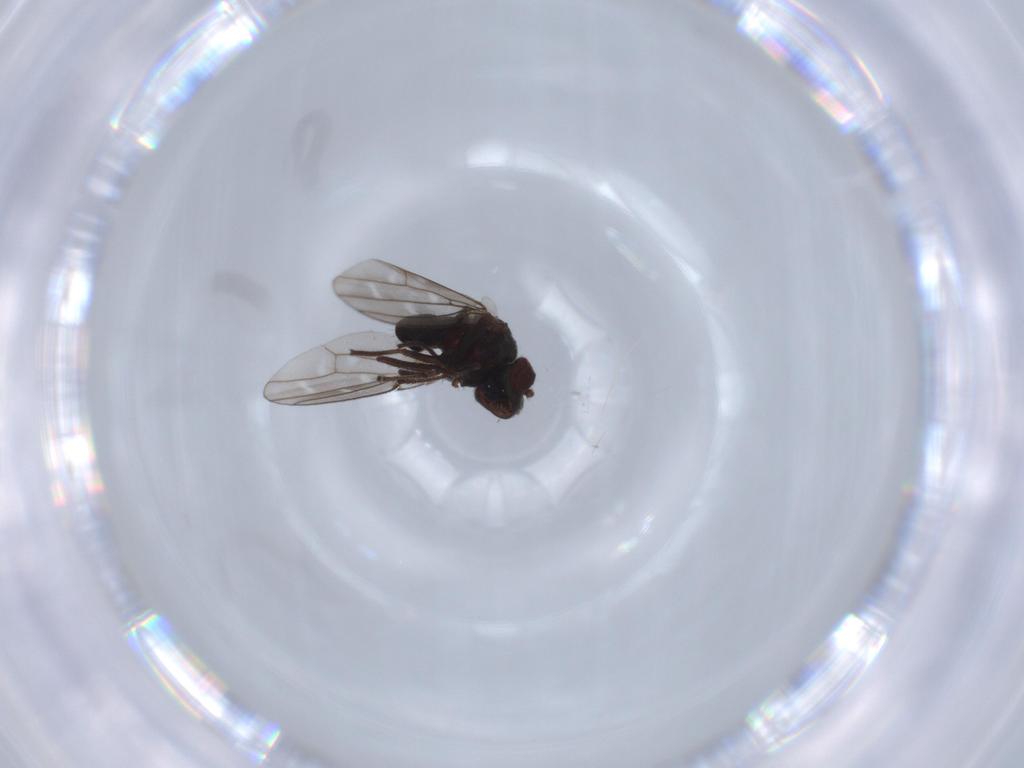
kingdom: Animalia
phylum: Arthropoda
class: Insecta
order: Diptera
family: Ephydridae
